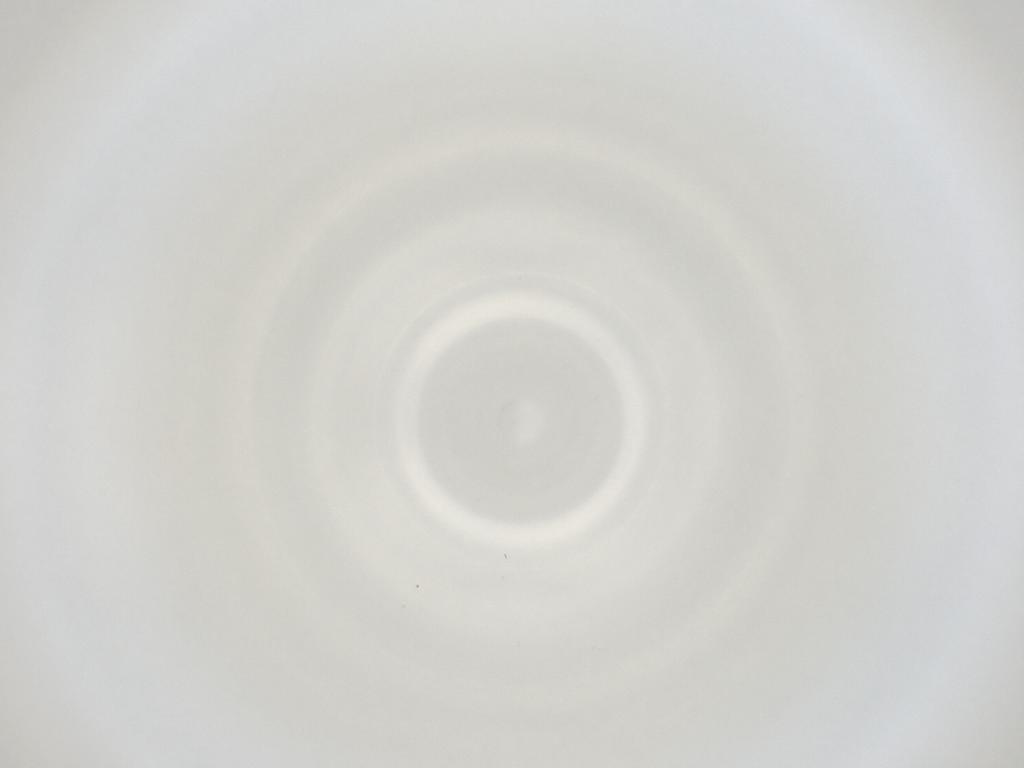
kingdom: Animalia
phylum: Arthropoda
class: Insecta
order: Diptera
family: Cecidomyiidae
